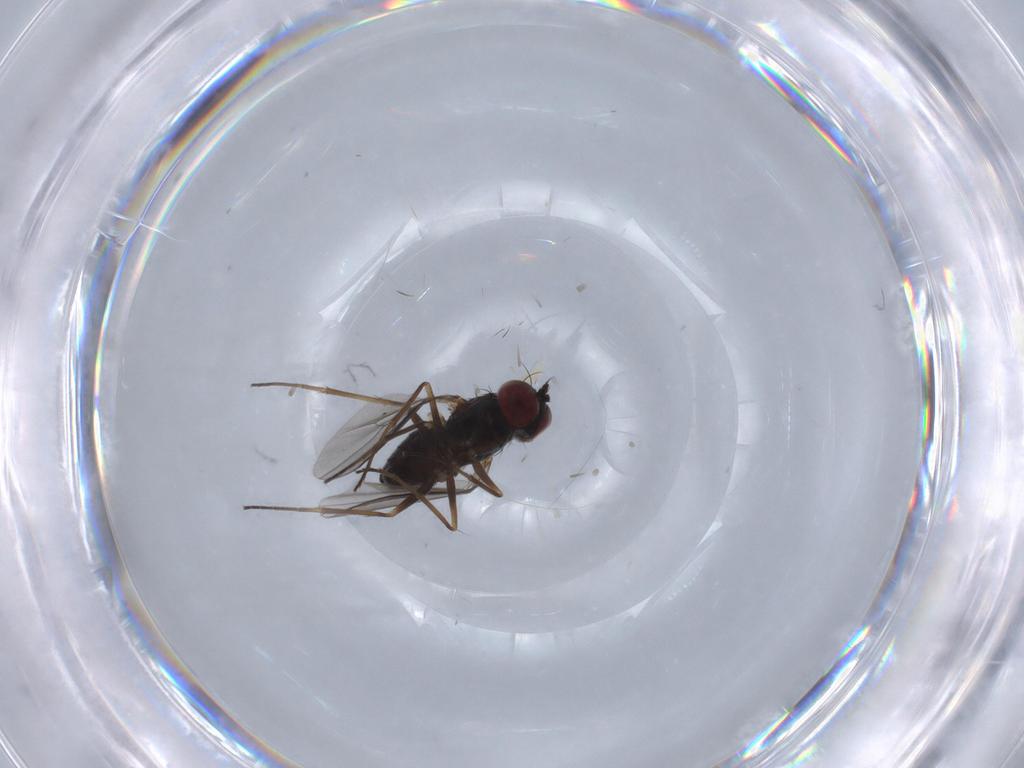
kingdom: Animalia
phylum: Arthropoda
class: Insecta
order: Diptera
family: Dolichopodidae
